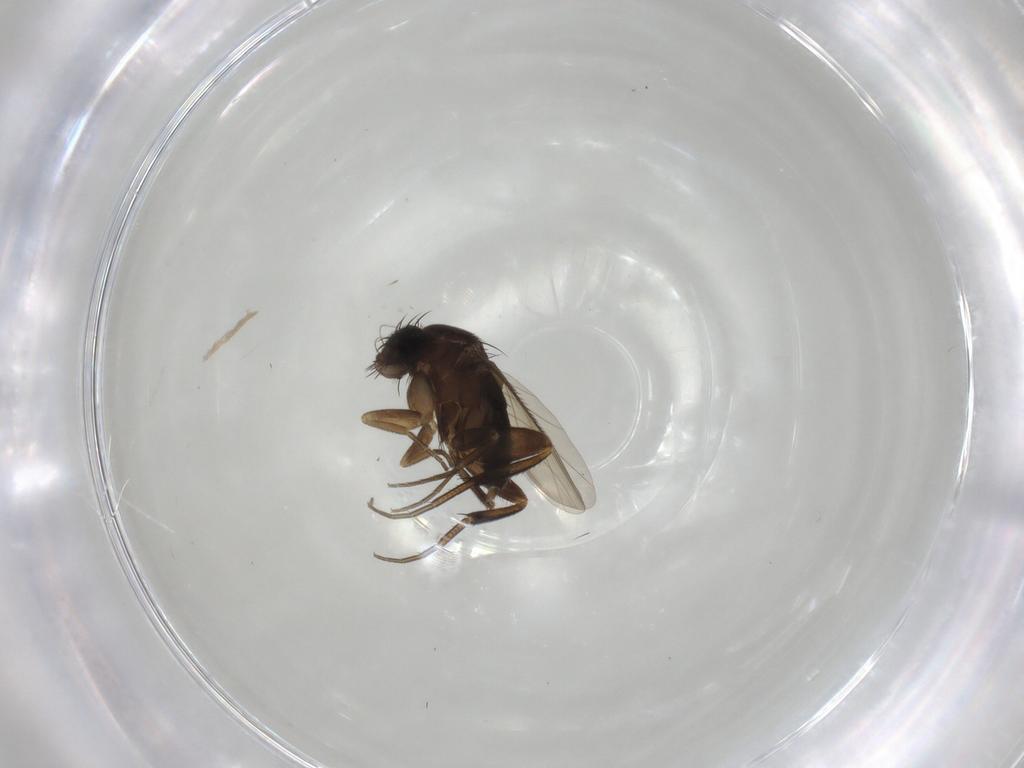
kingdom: Animalia
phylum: Arthropoda
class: Insecta
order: Diptera
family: Phoridae
